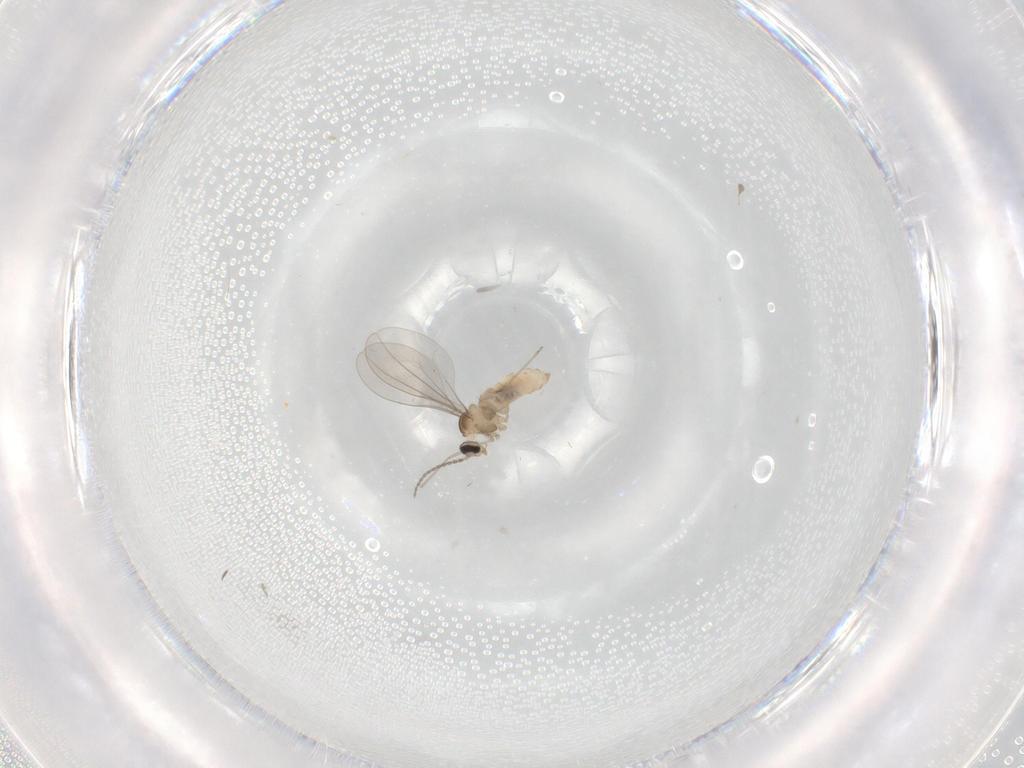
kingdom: Animalia
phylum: Arthropoda
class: Insecta
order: Diptera
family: Cecidomyiidae
